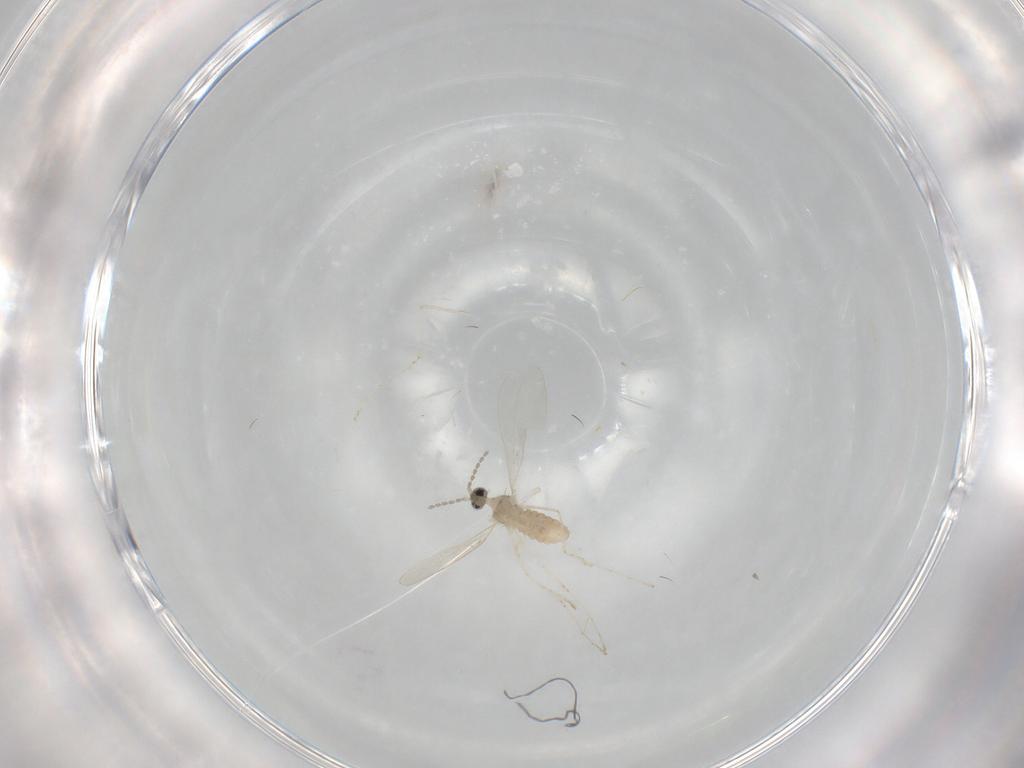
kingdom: Animalia
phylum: Arthropoda
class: Insecta
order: Diptera
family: Cecidomyiidae
